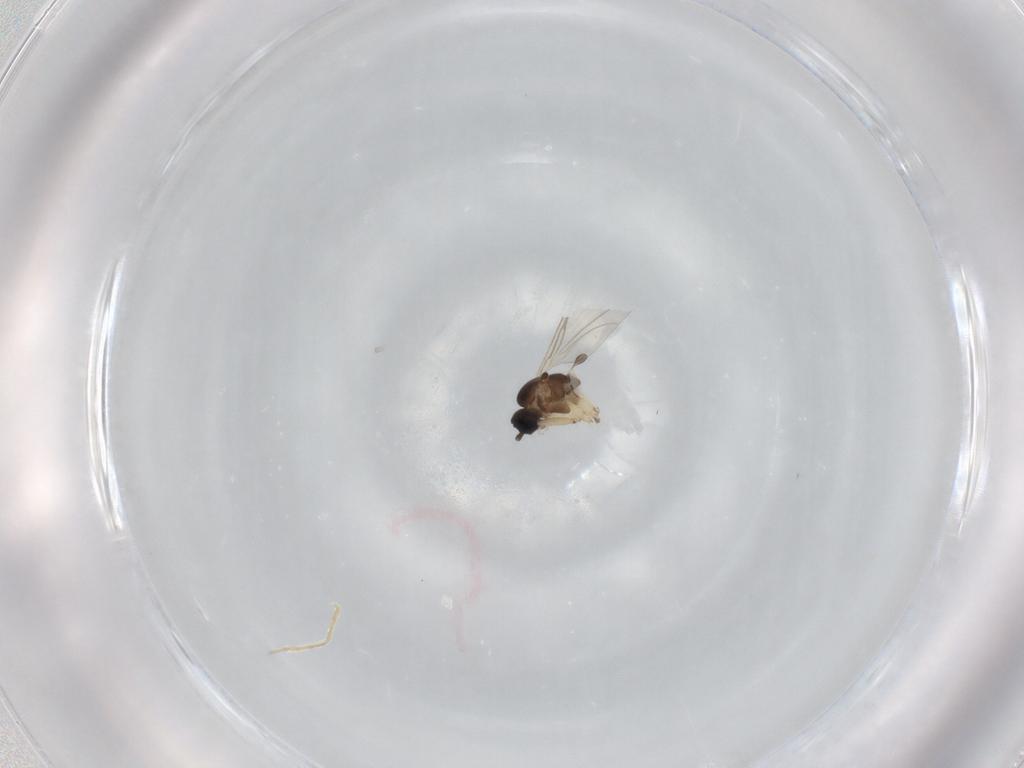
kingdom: Animalia
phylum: Arthropoda
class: Insecta
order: Diptera
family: Sciaridae
